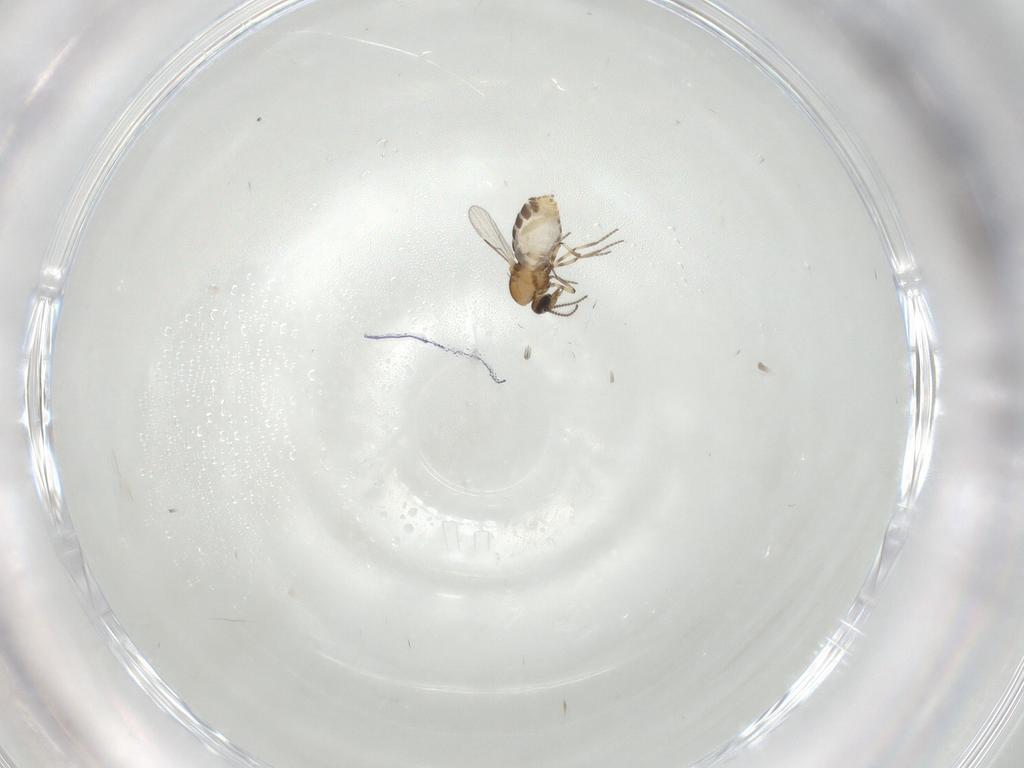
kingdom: Animalia
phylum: Arthropoda
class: Insecta
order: Diptera
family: Ceratopogonidae
